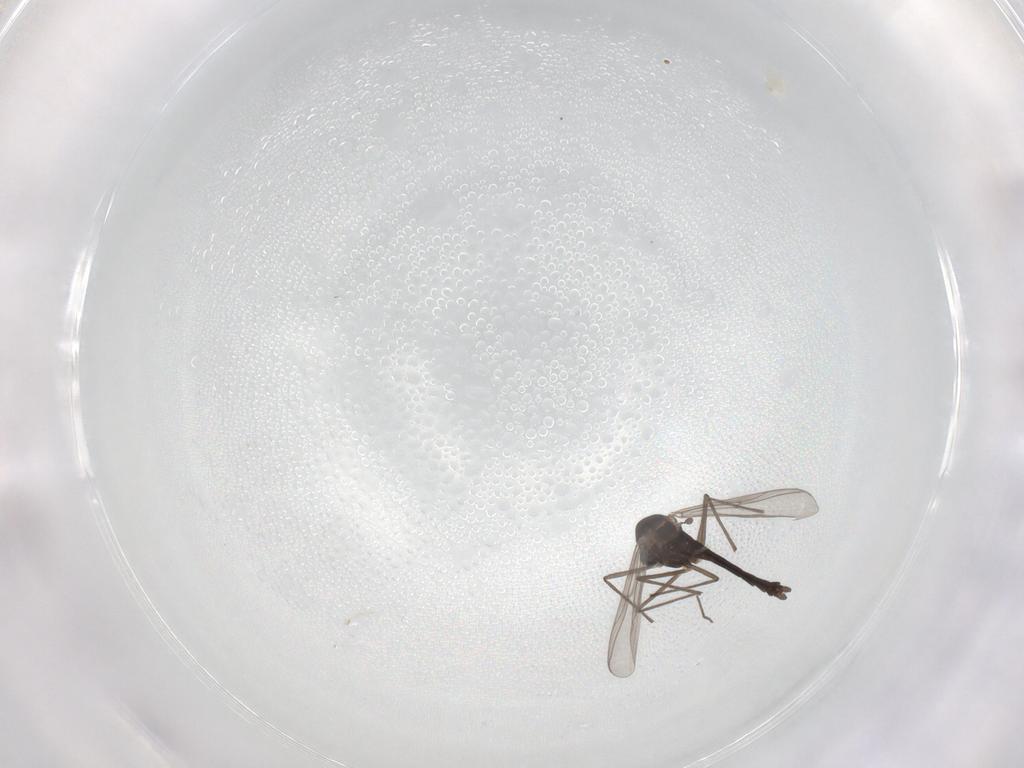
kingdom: Animalia
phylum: Arthropoda
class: Insecta
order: Diptera
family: Chironomidae
